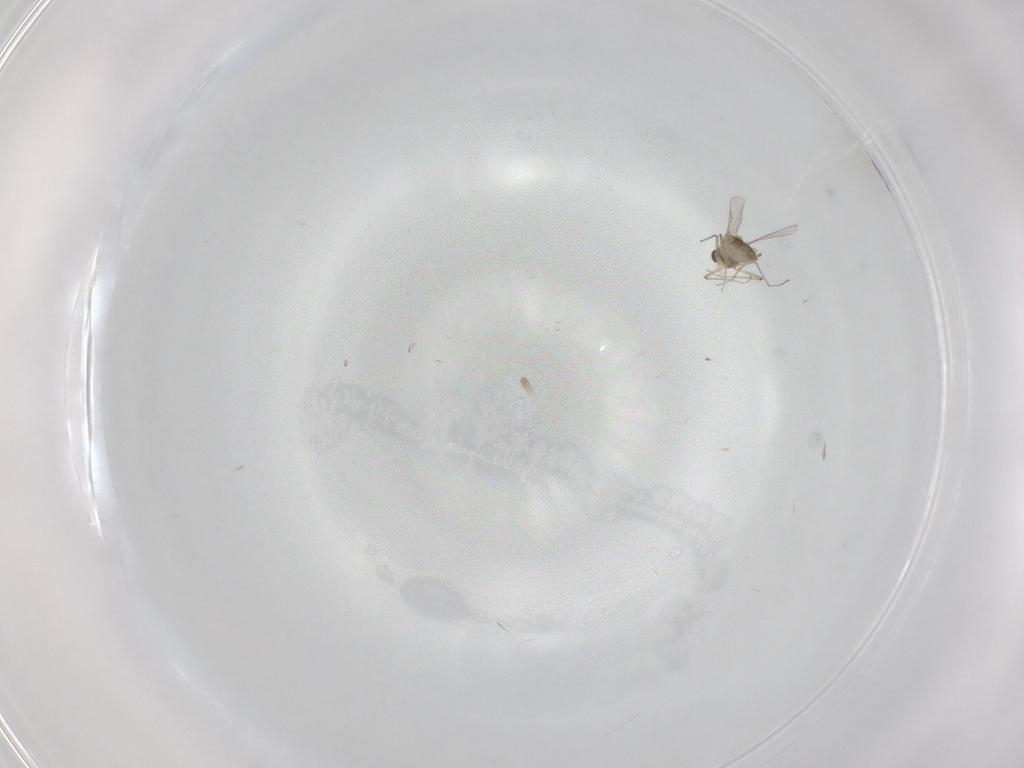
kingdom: Animalia
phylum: Arthropoda
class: Insecta
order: Diptera
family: Chironomidae
